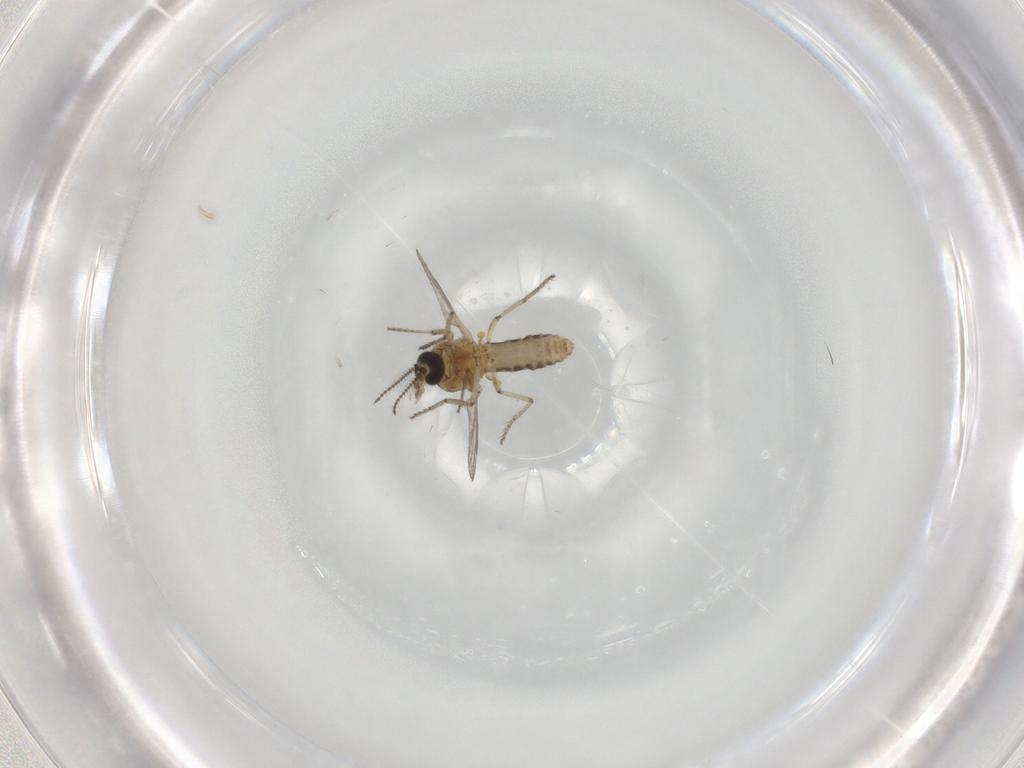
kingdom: Animalia
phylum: Arthropoda
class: Insecta
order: Diptera
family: Ceratopogonidae
